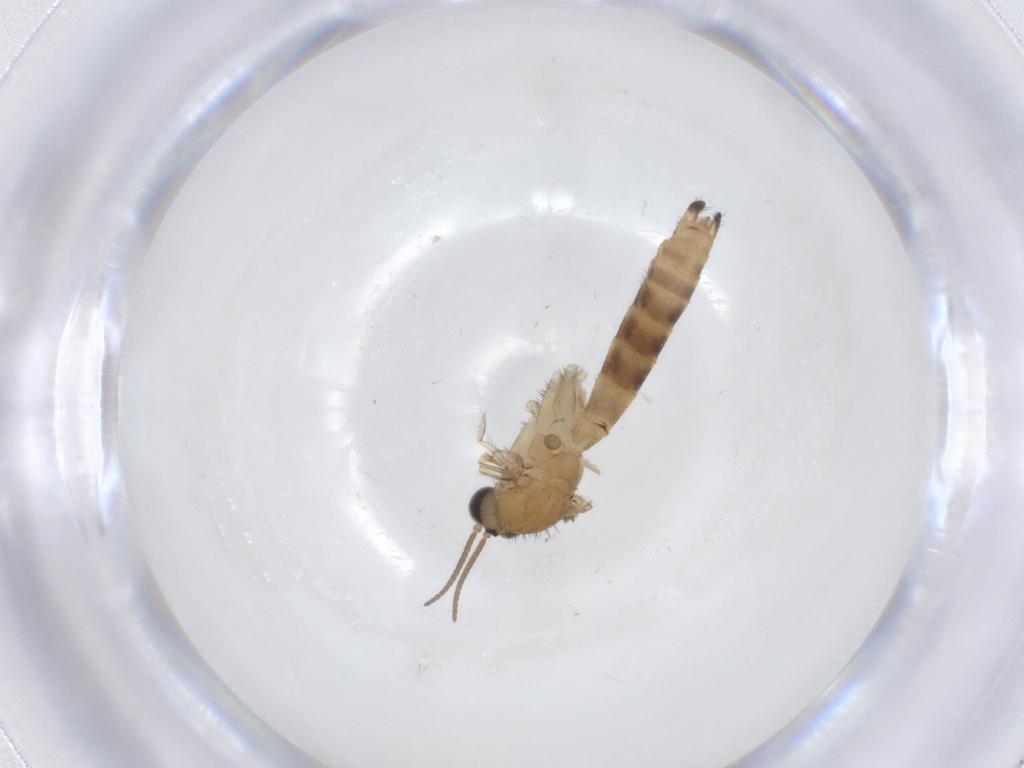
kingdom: Animalia
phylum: Arthropoda
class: Insecta
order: Diptera
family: Keroplatidae
